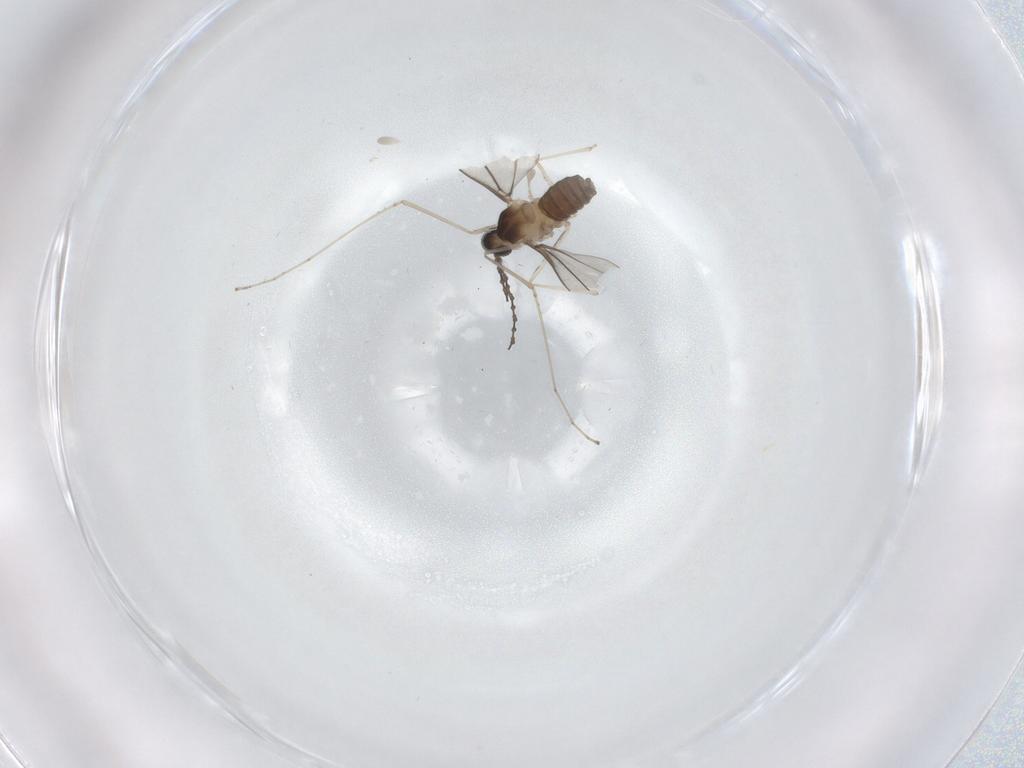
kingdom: Animalia
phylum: Arthropoda
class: Insecta
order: Diptera
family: Cecidomyiidae
